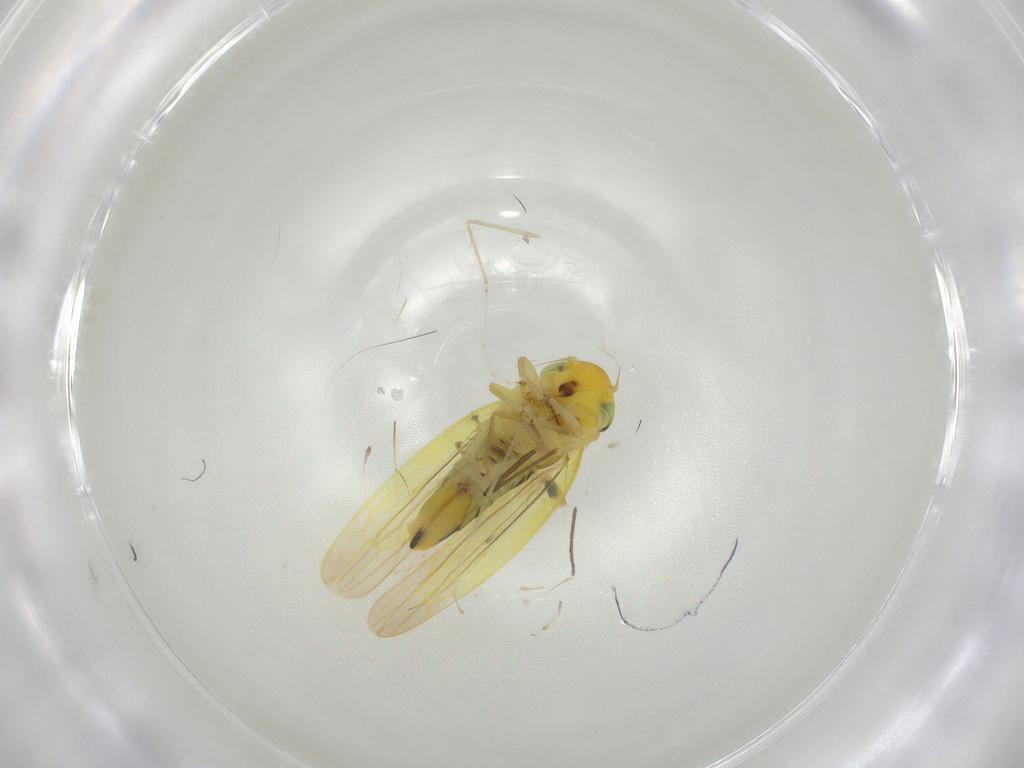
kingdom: Animalia
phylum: Arthropoda
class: Insecta
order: Hemiptera
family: Cicadellidae
